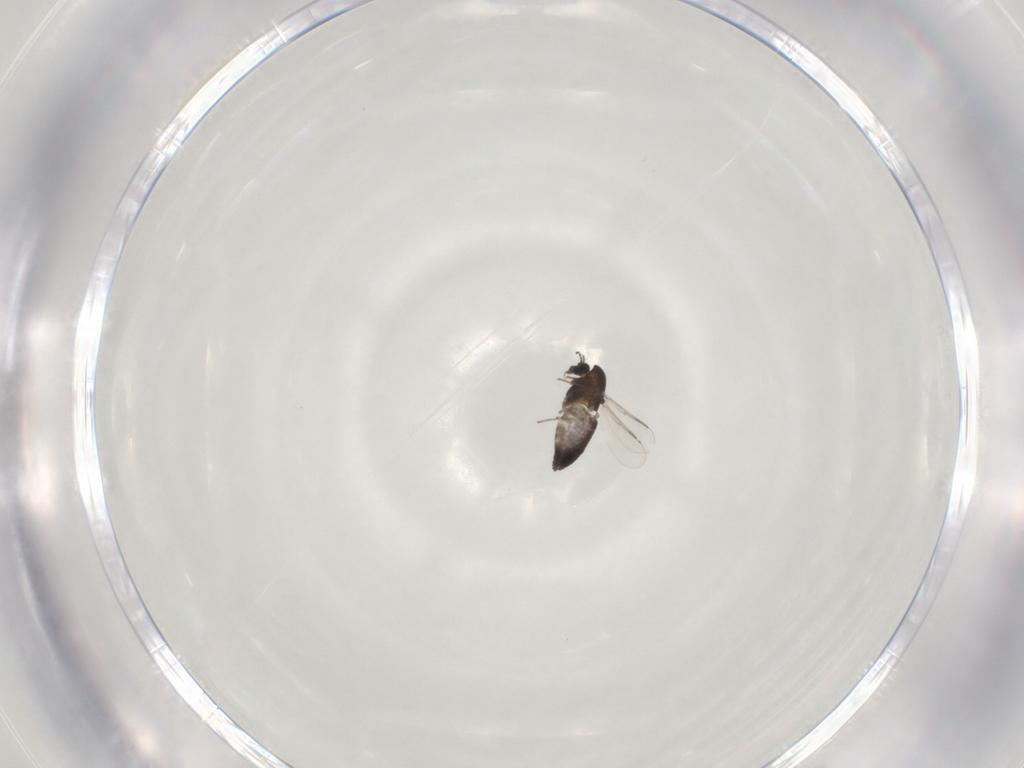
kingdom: Animalia
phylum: Arthropoda
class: Insecta
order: Diptera
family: Chironomidae
